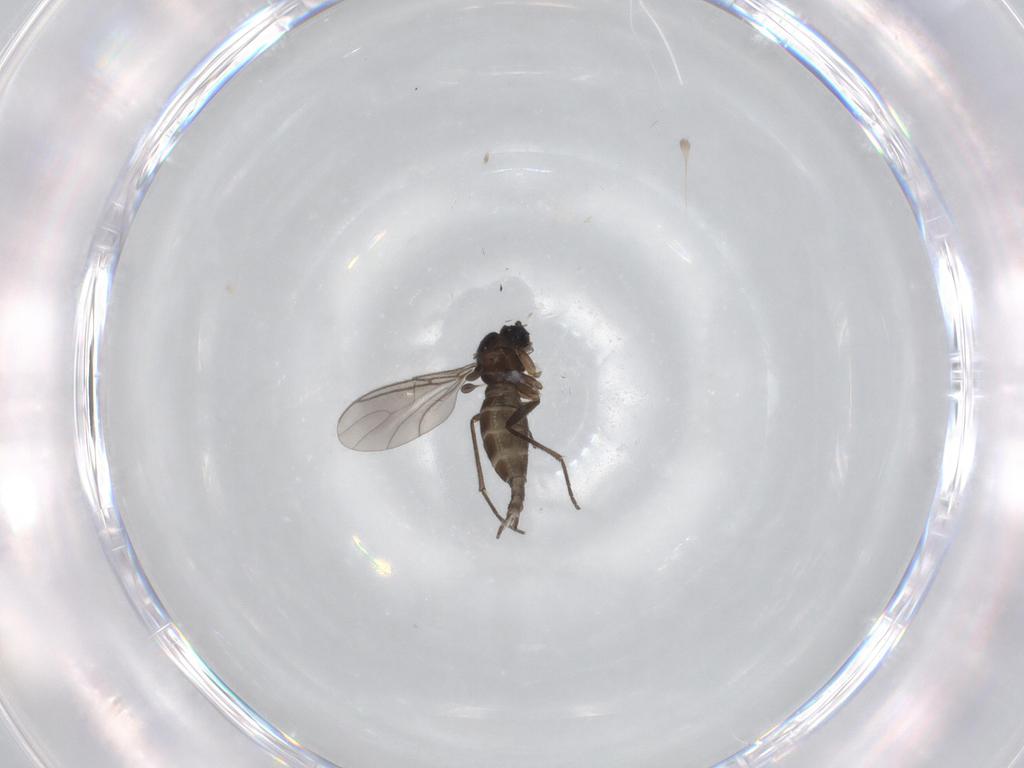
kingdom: Animalia
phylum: Arthropoda
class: Insecta
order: Diptera
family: Sciaridae
